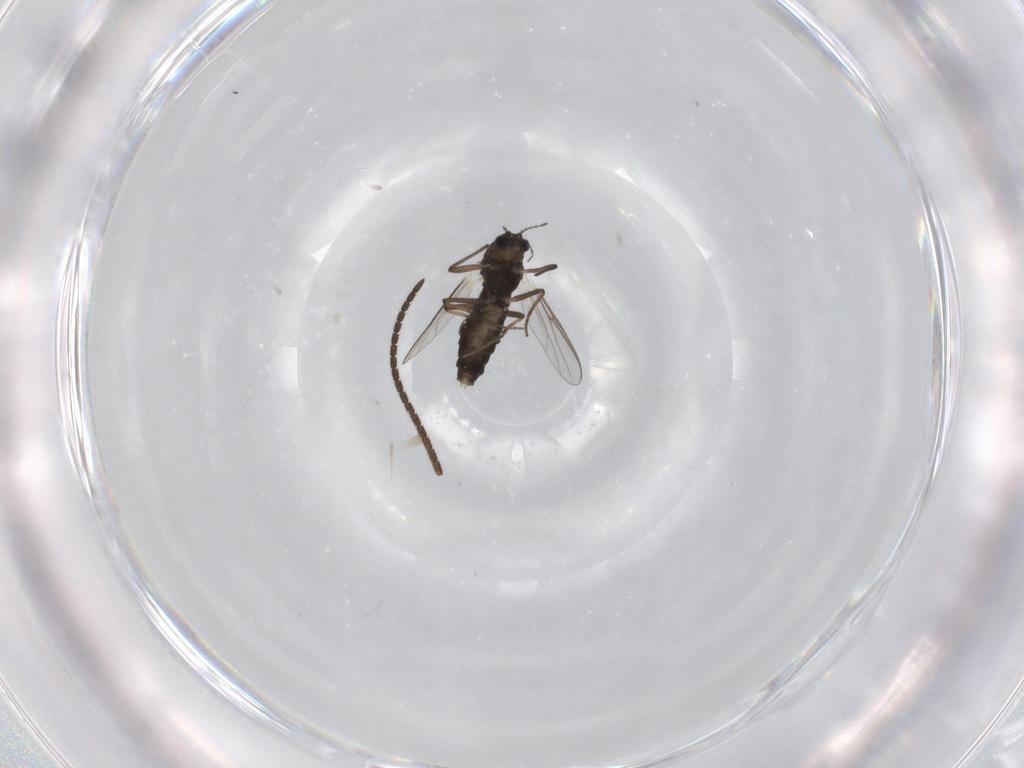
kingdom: Animalia
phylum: Arthropoda
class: Insecta
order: Diptera
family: Chironomidae
